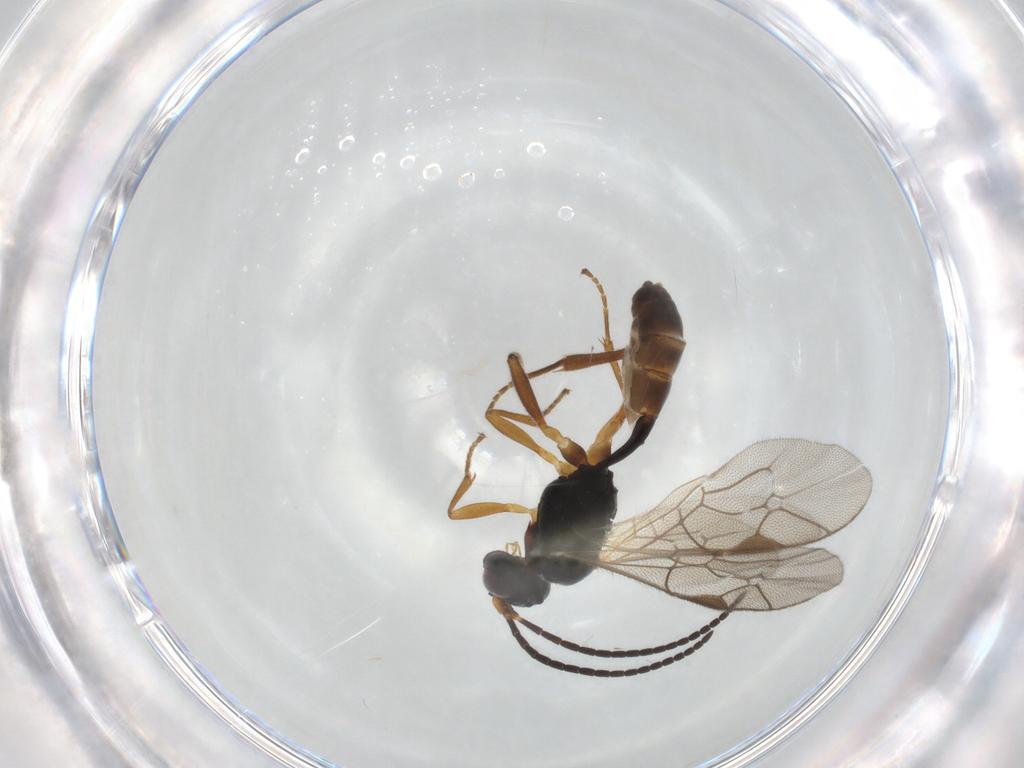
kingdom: Animalia
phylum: Arthropoda
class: Insecta
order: Hymenoptera
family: Ichneumonidae
